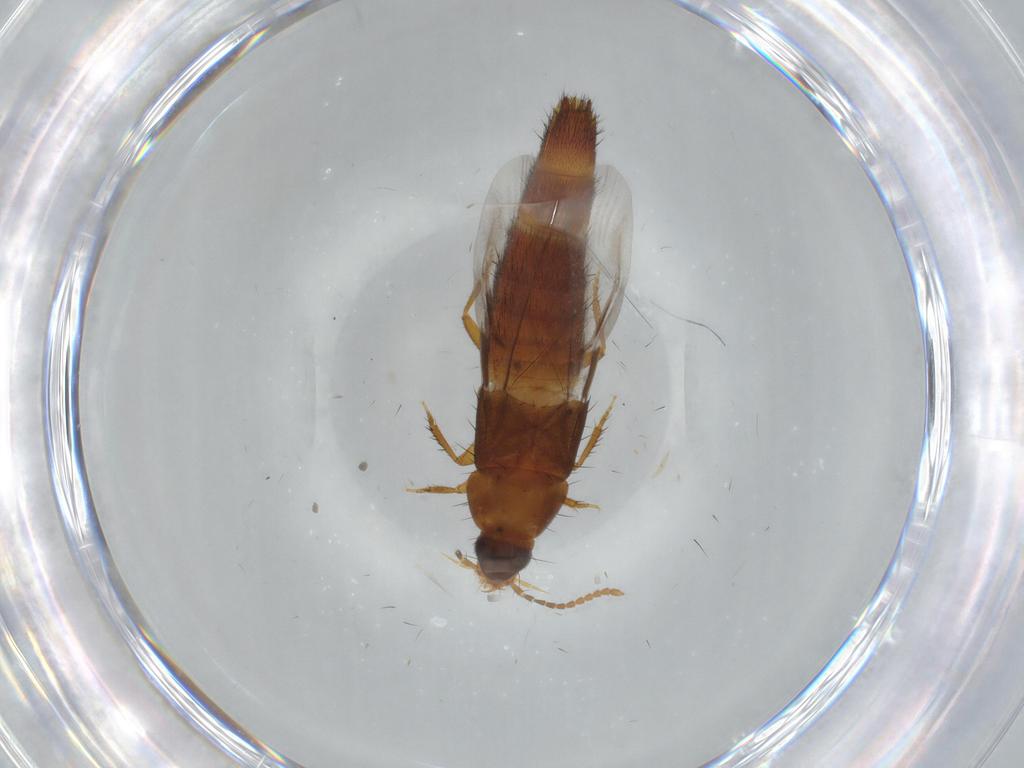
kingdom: Animalia
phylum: Arthropoda
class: Insecta
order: Coleoptera
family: Staphylinidae
